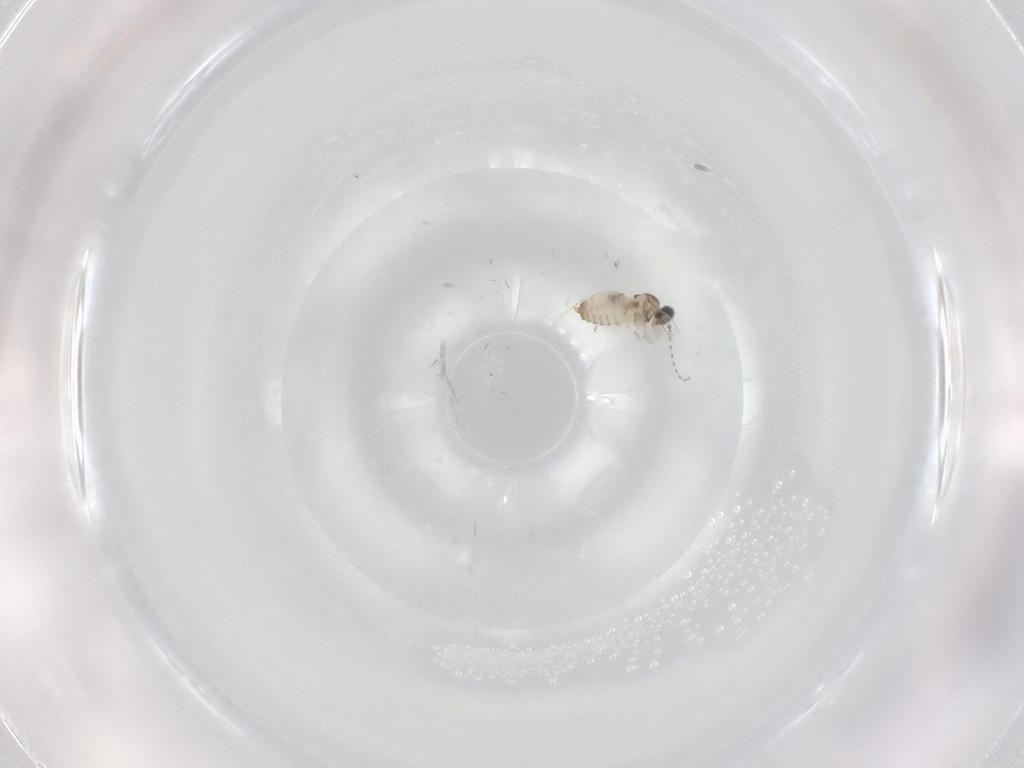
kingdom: Animalia
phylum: Arthropoda
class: Insecta
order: Diptera
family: Cecidomyiidae
